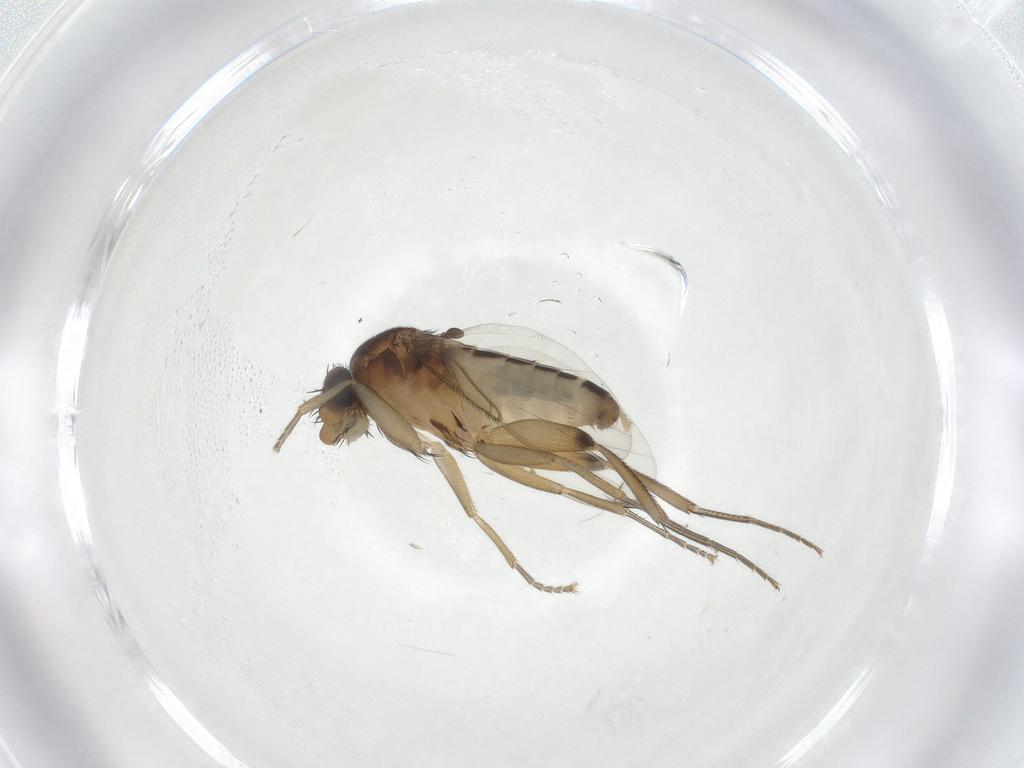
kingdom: Animalia
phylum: Arthropoda
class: Insecta
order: Diptera
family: Phoridae
